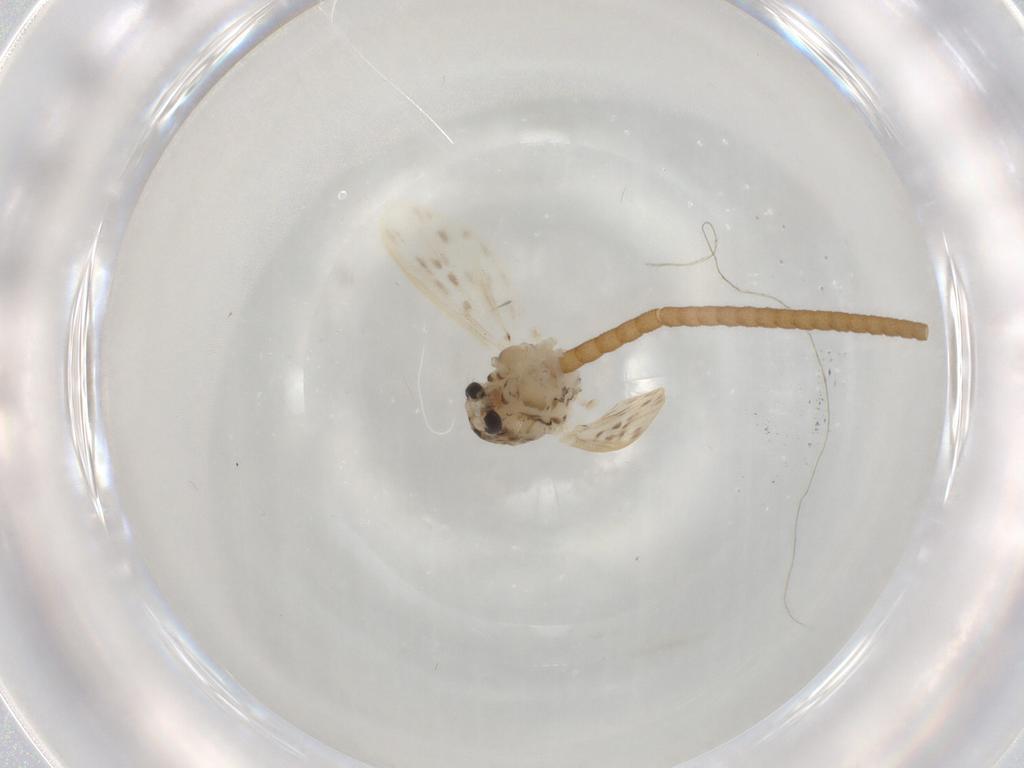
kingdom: Animalia
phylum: Arthropoda
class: Insecta
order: Diptera
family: Chaoboridae
